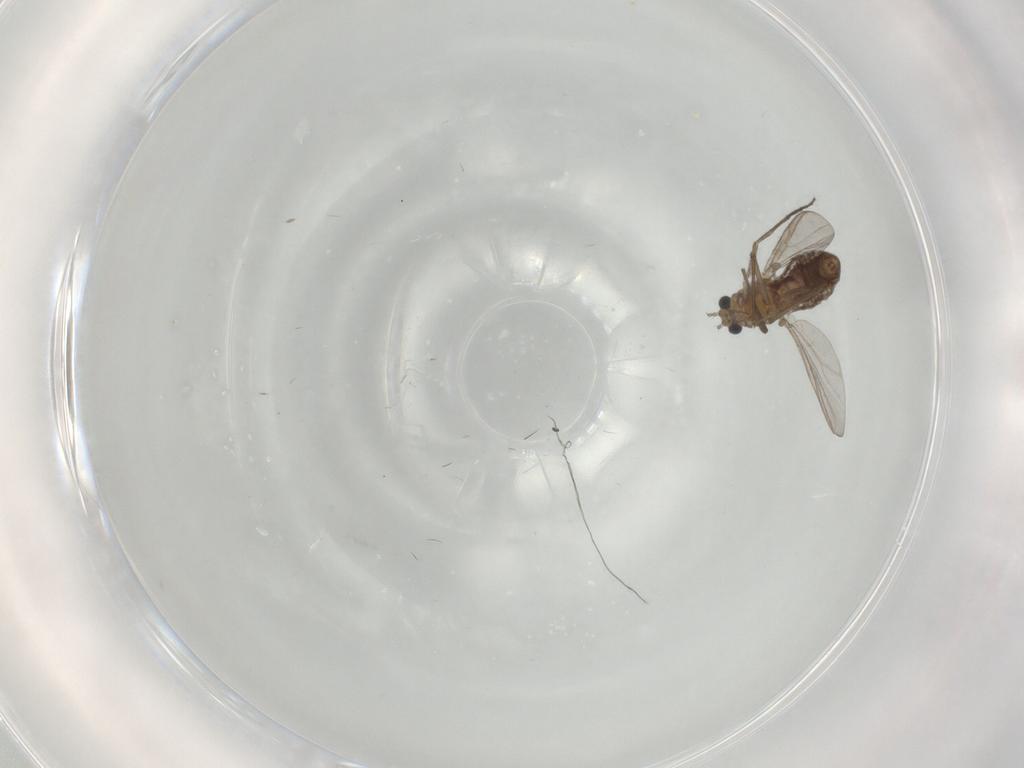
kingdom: Animalia
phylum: Arthropoda
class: Insecta
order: Diptera
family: Chironomidae
